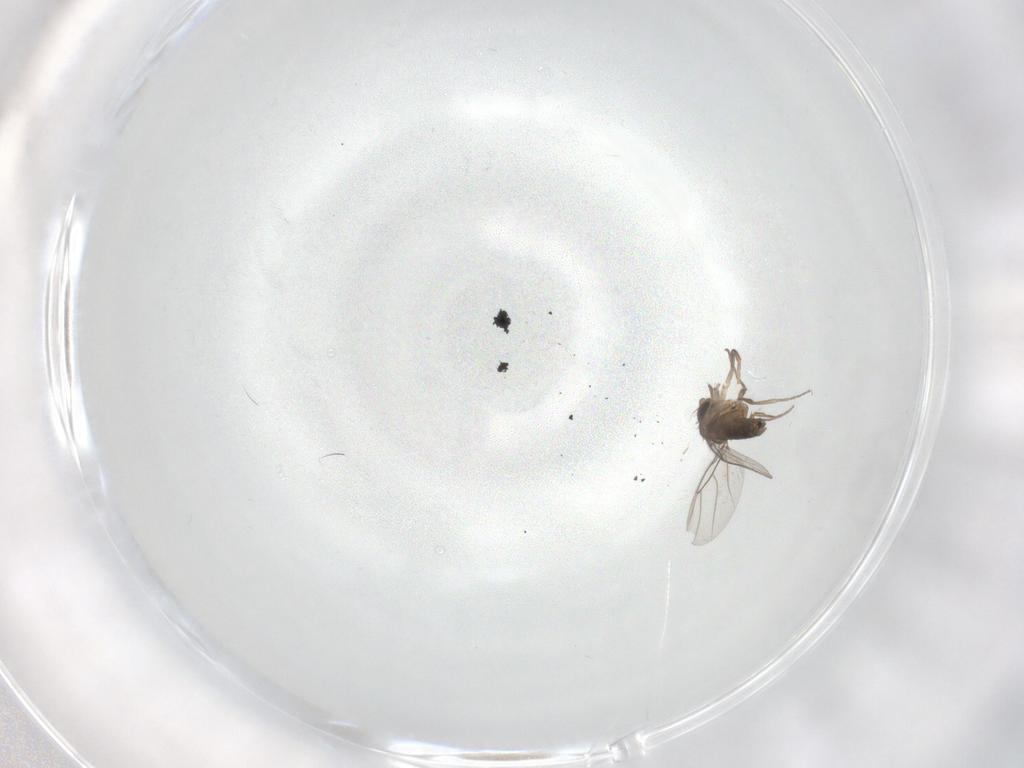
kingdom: Animalia
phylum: Arthropoda
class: Insecta
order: Diptera
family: Phoridae
